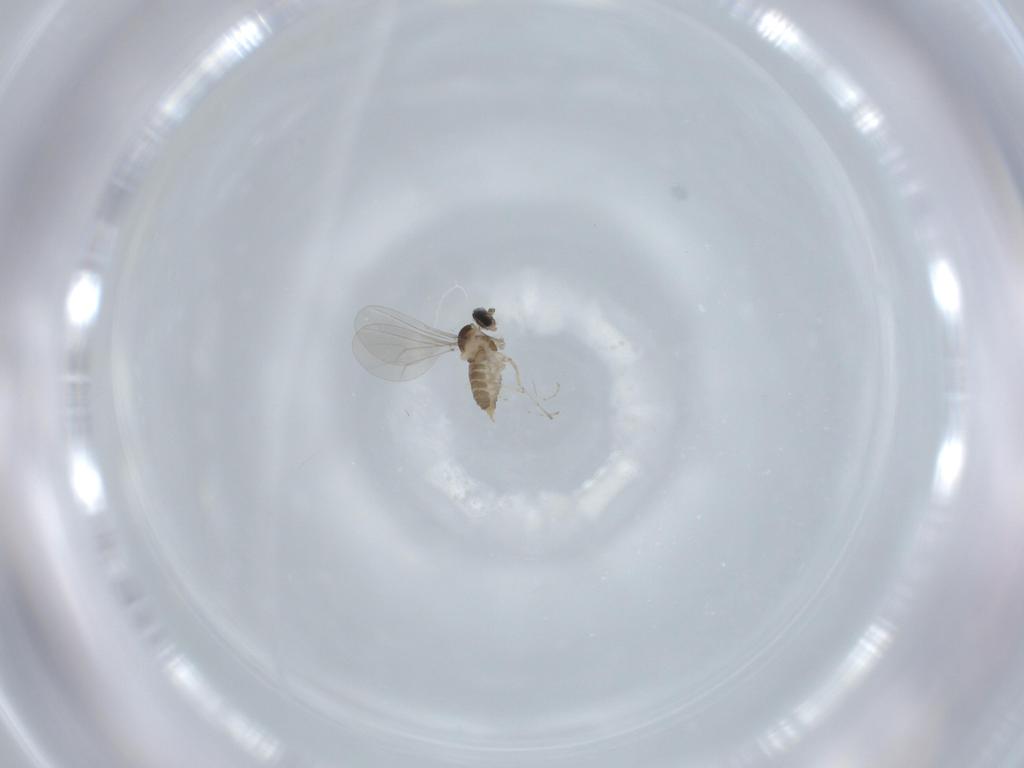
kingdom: Animalia
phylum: Arthropoda
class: Insecta
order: Diptera
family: Cecidomyiidae
